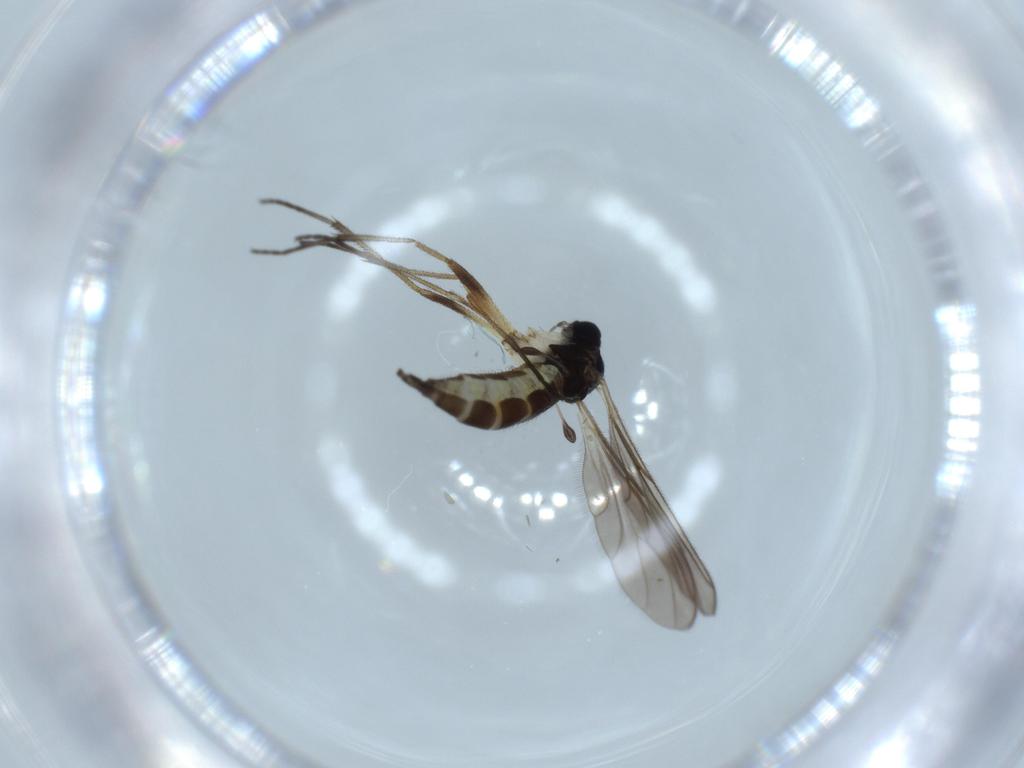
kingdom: Animalia
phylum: Arthropoda
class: Insecta
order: Diptera
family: Sciaridae
